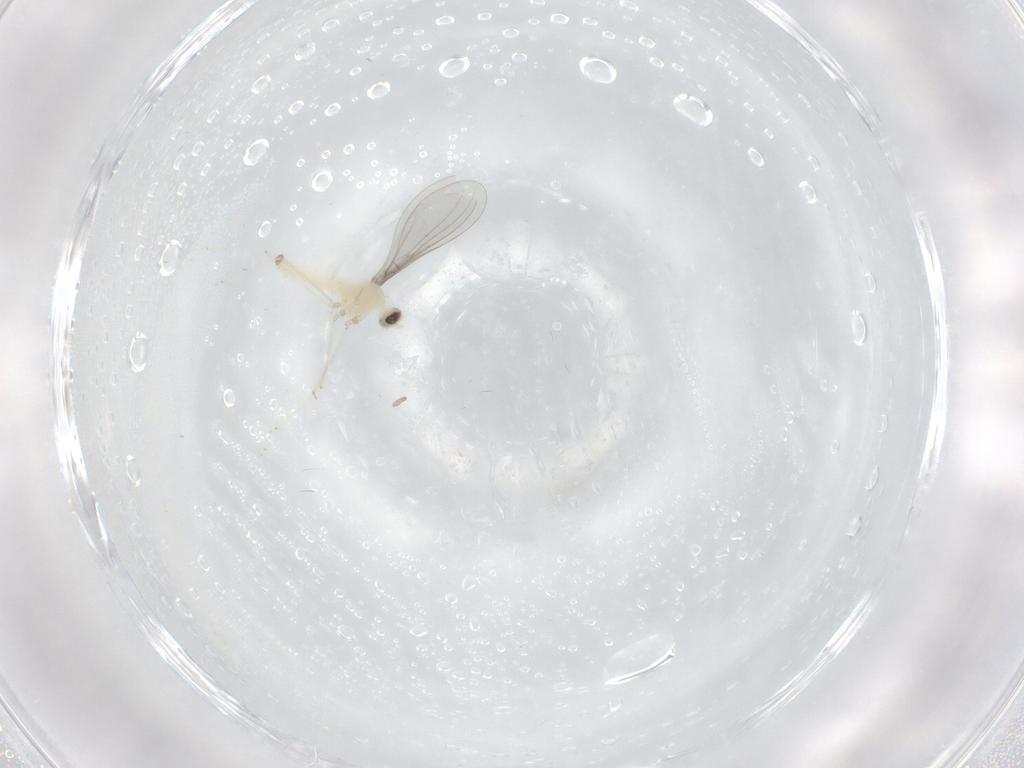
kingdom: Animalia
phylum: Arthropoda
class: Insecta
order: Diptera
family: Cecidomyiidae
